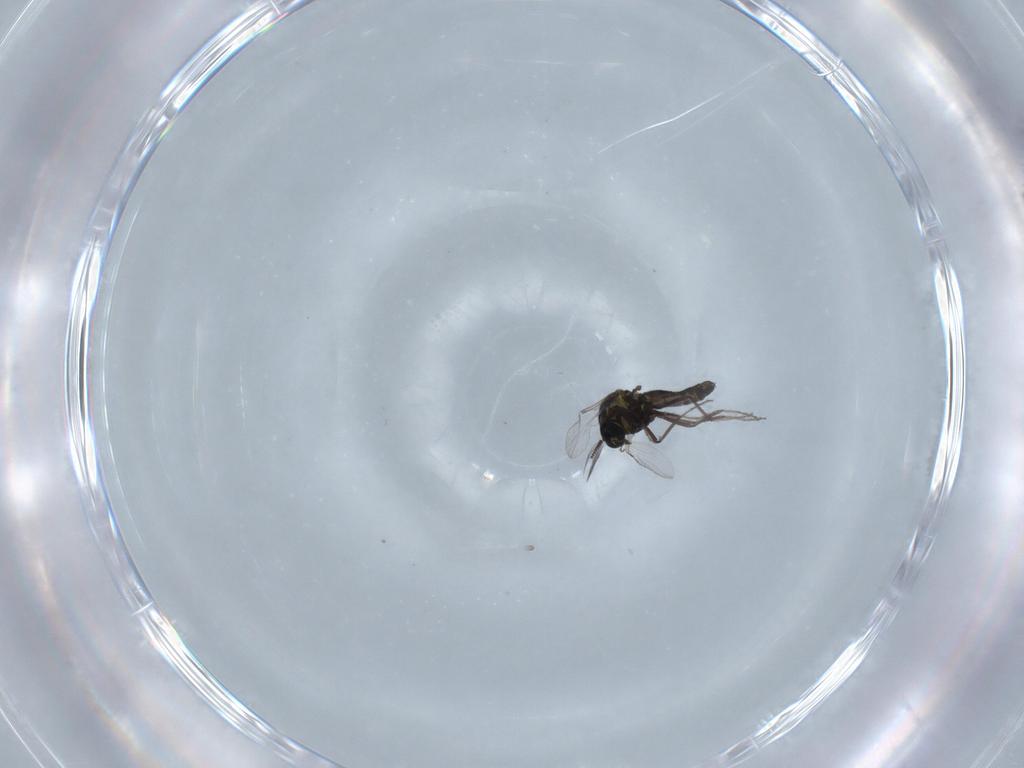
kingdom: Animalia
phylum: Arthropoda
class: Insecta
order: Diptera
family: Ceratopogonidae
